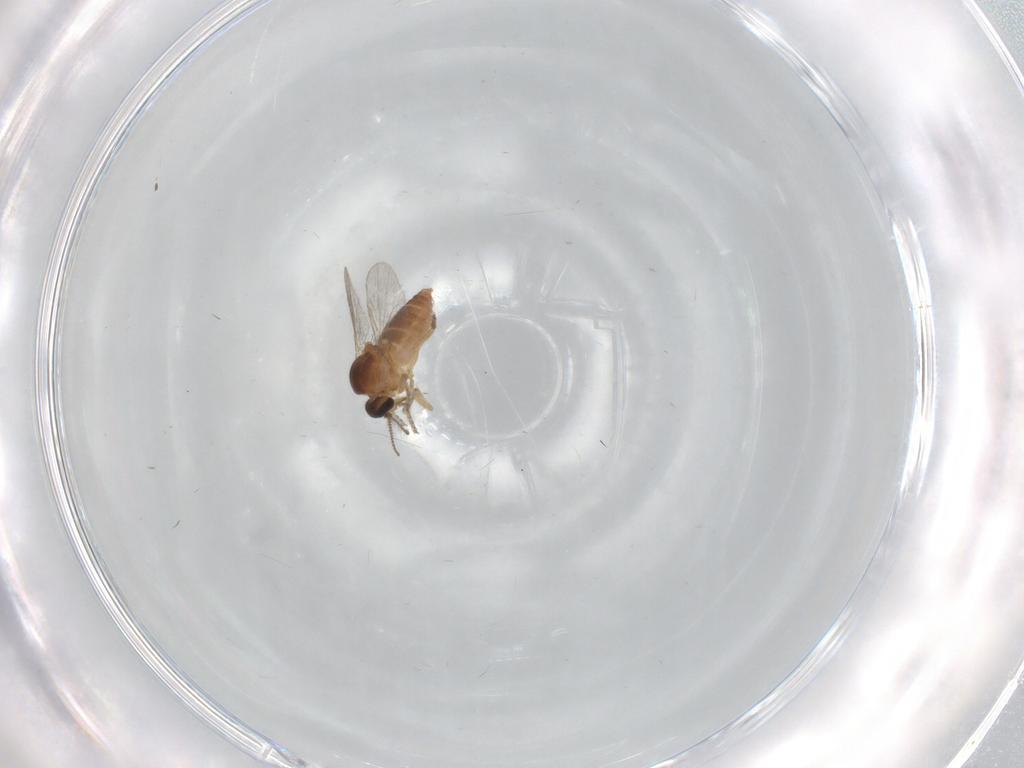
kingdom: Animalia
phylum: Arthropoda
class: Insecta
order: Diptera
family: Ceratopogonidae
